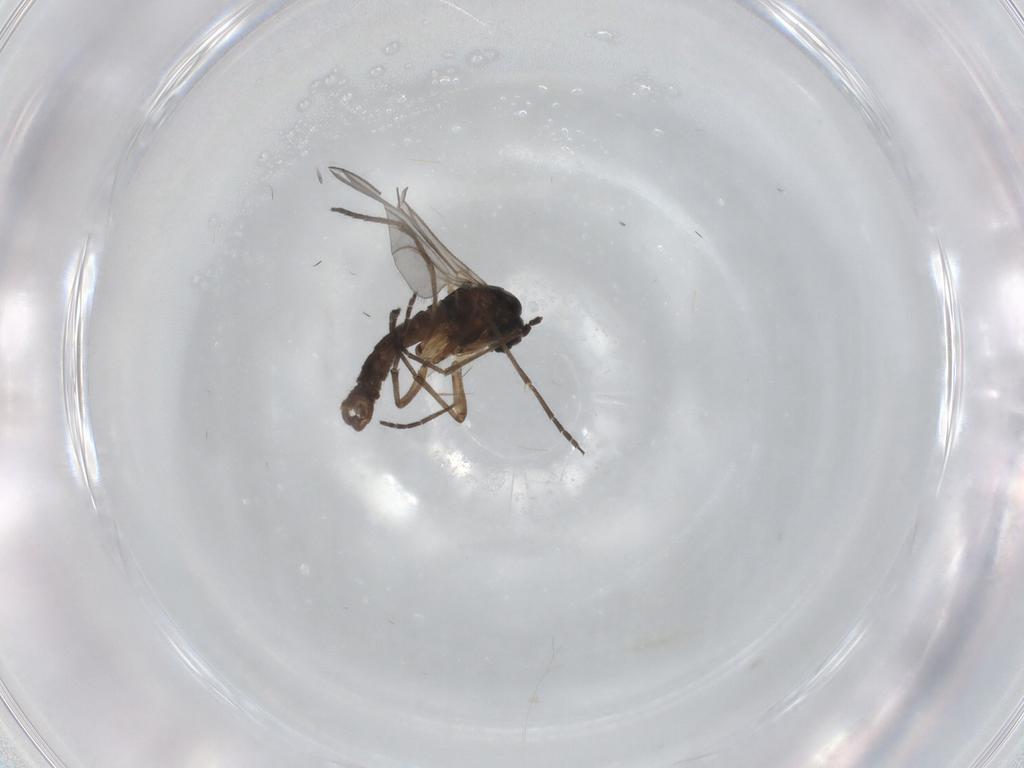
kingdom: Animalia
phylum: Arthropoda
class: Insecta
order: Diptera
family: Sciaridae
